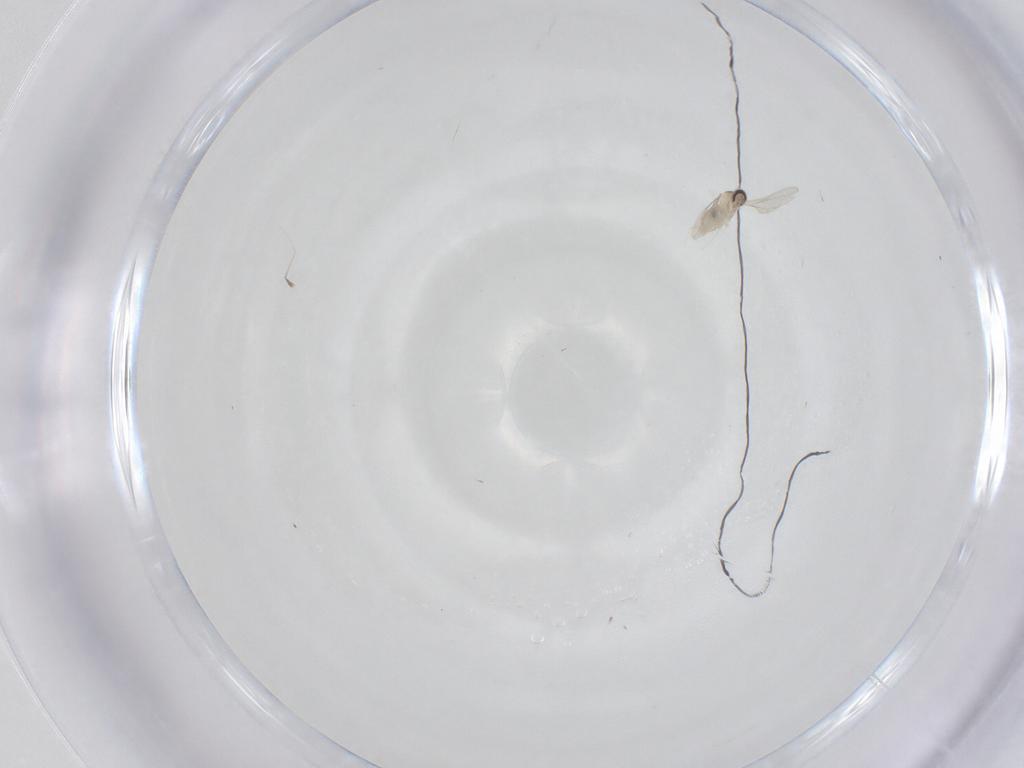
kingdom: Animalia
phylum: Arthropoda
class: Insecta
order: Diptera
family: Cecidomyiidae
